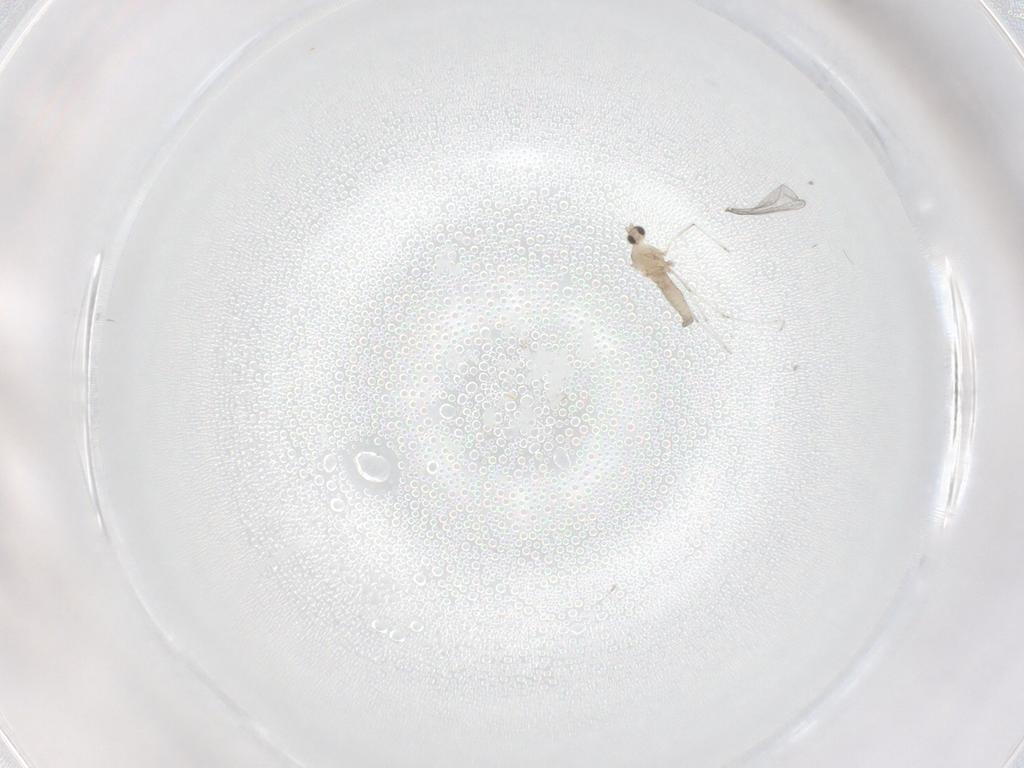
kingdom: Animalia
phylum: Arthropoda
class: Insecta
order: Diptera
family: Cecidomyiidae
